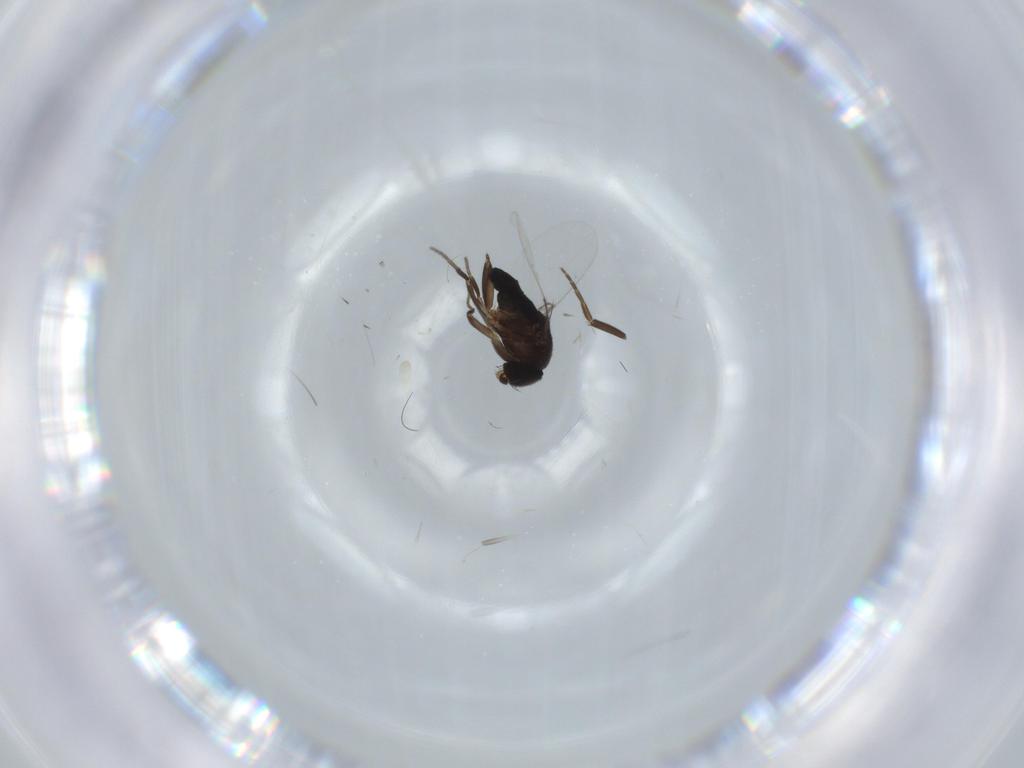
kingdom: Animalia
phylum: Arthropoda
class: Insecta
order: Diptera
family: Phoridae
